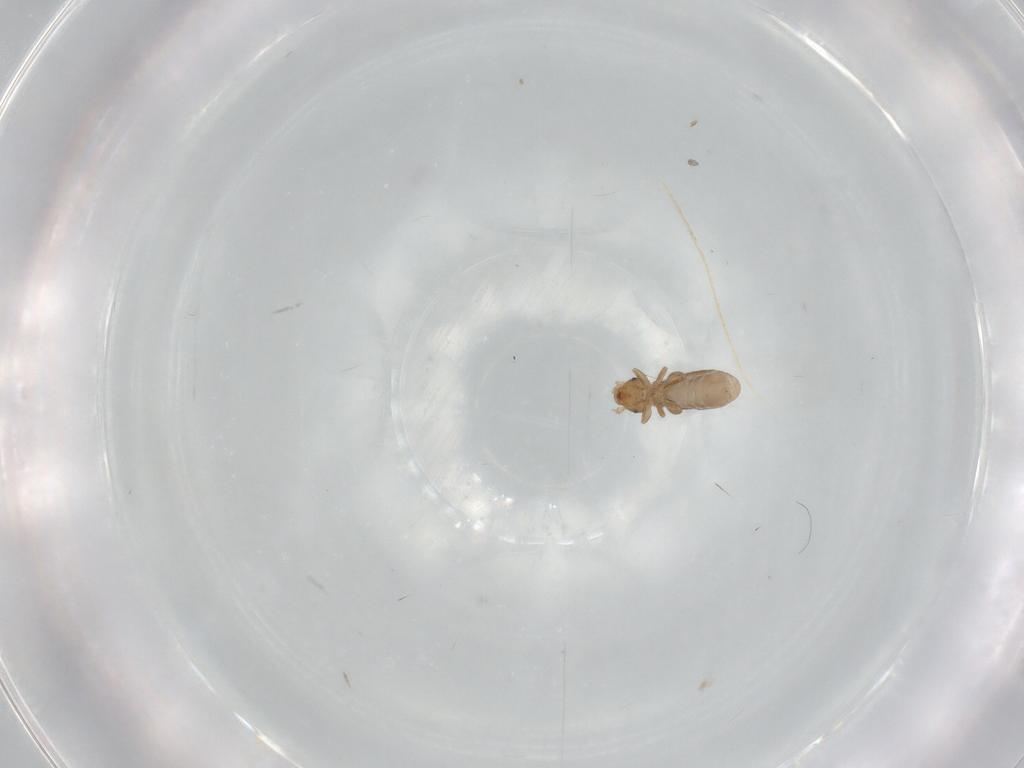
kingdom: Animalia
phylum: Arthropoda
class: Insecta
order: Psocodea
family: Liposcelididae
